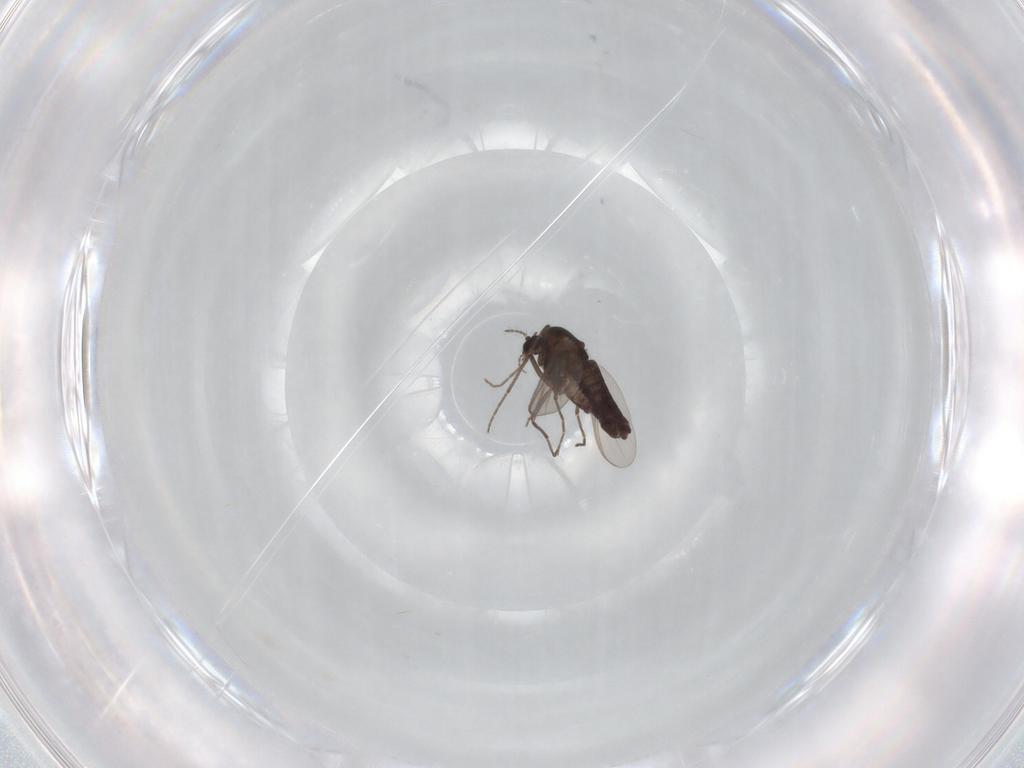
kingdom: Animalia
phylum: Arthropoda
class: Insecta
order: Diptera
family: Chironomidae
